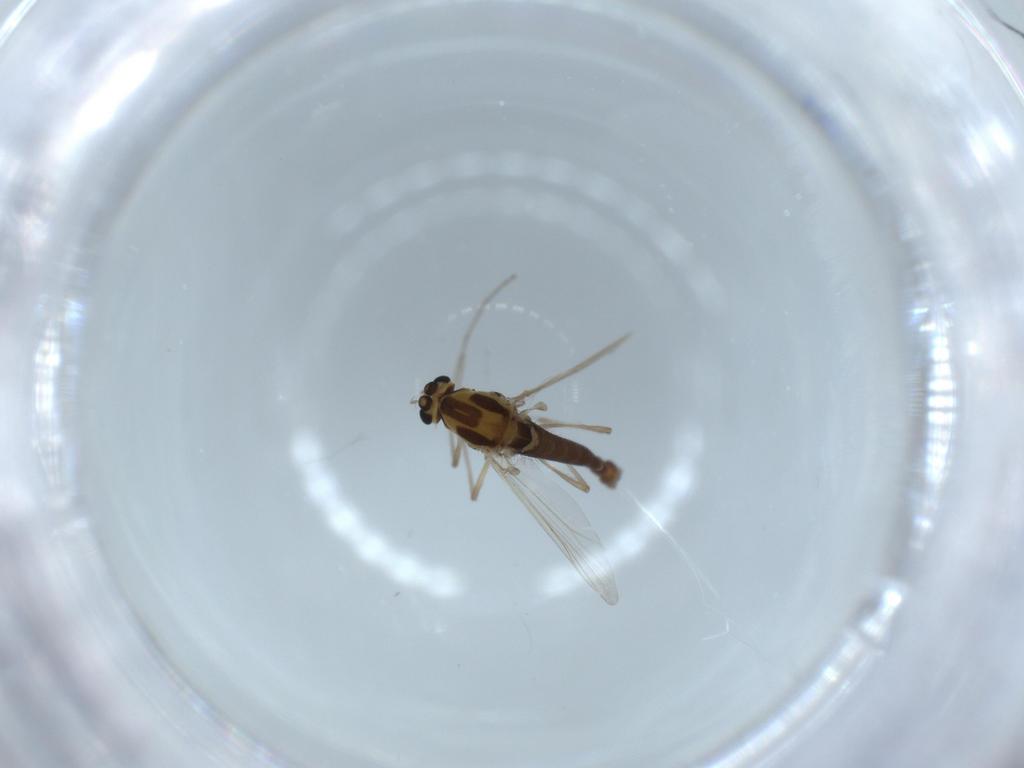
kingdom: Animalia
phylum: Arthropoda
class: Insecta
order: Diptera
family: Chironomidae
